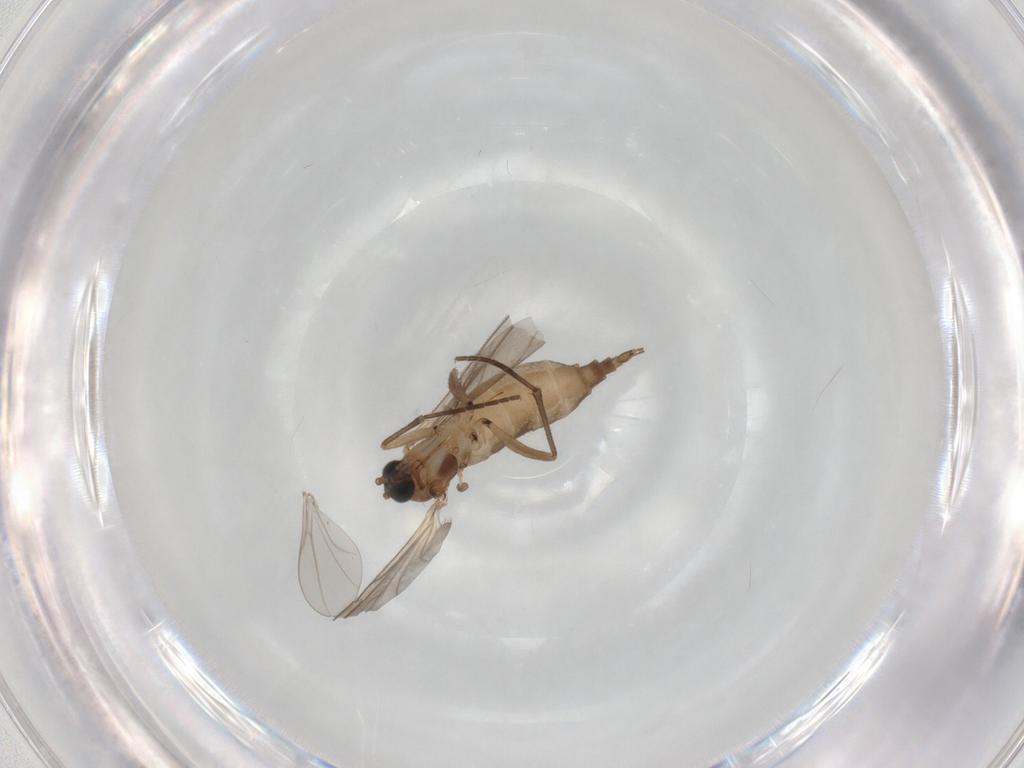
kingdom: Animalia
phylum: Arthropoda
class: Insecta
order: Diptera
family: Sciaridae
